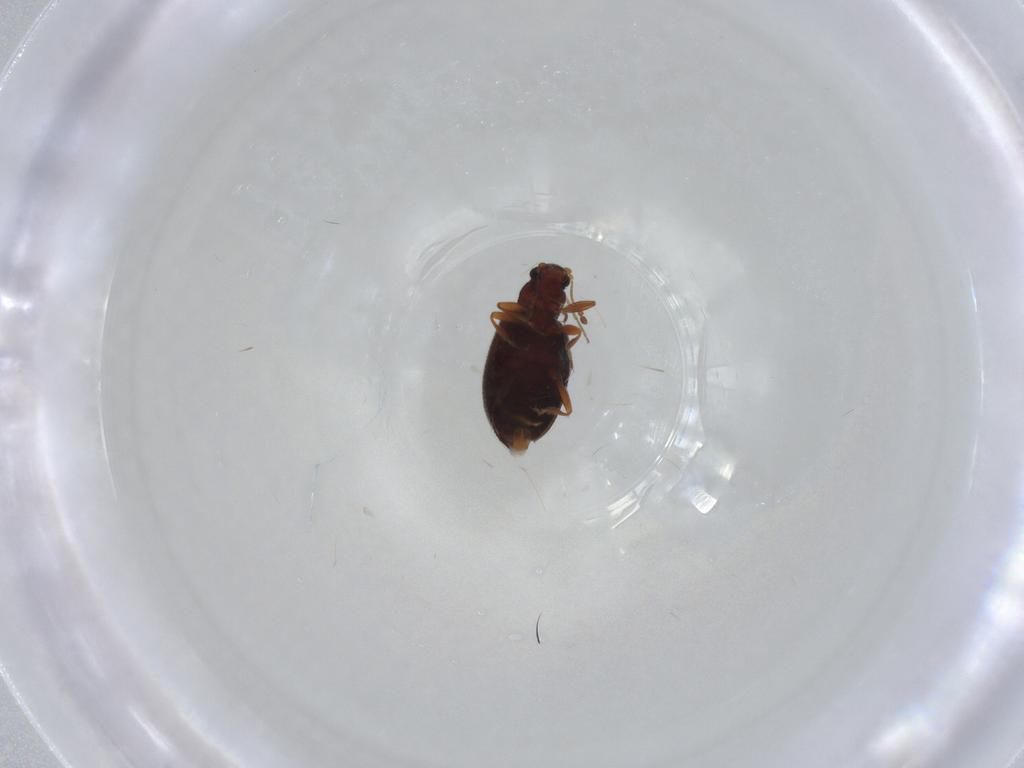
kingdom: Animalia
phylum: Arthropoda
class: Insecta
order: Coleoptera
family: Latridiidae
